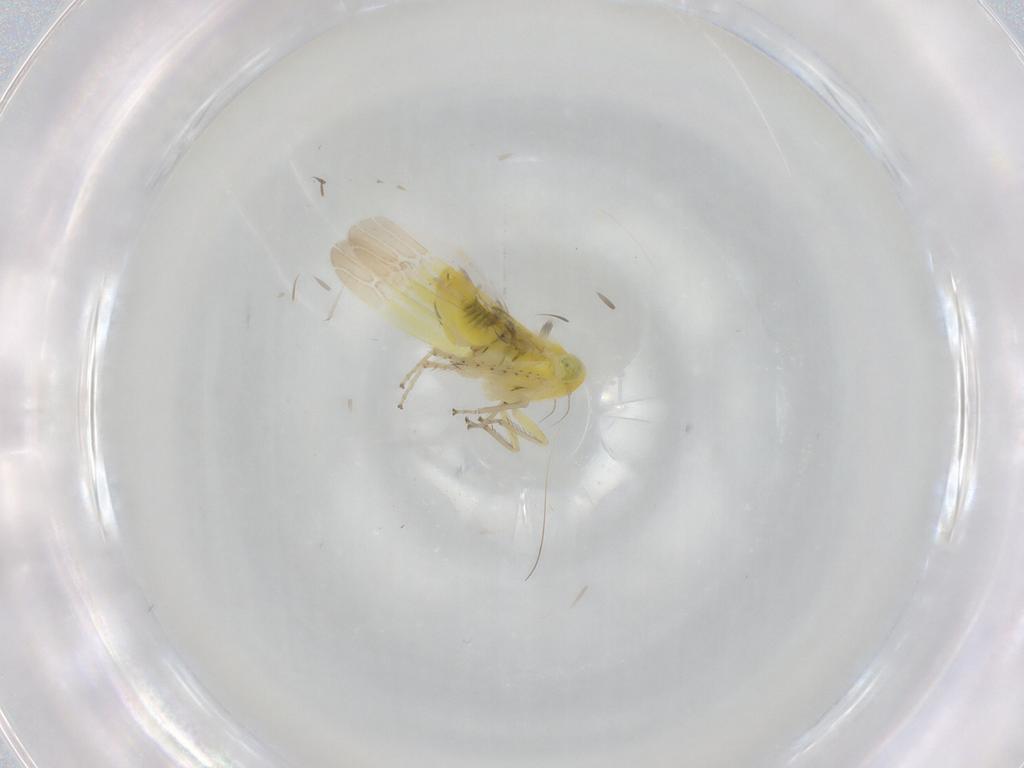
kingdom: Animalia
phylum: Arthropoda
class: Insecta
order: Hemiptera
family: Cicadellidae
